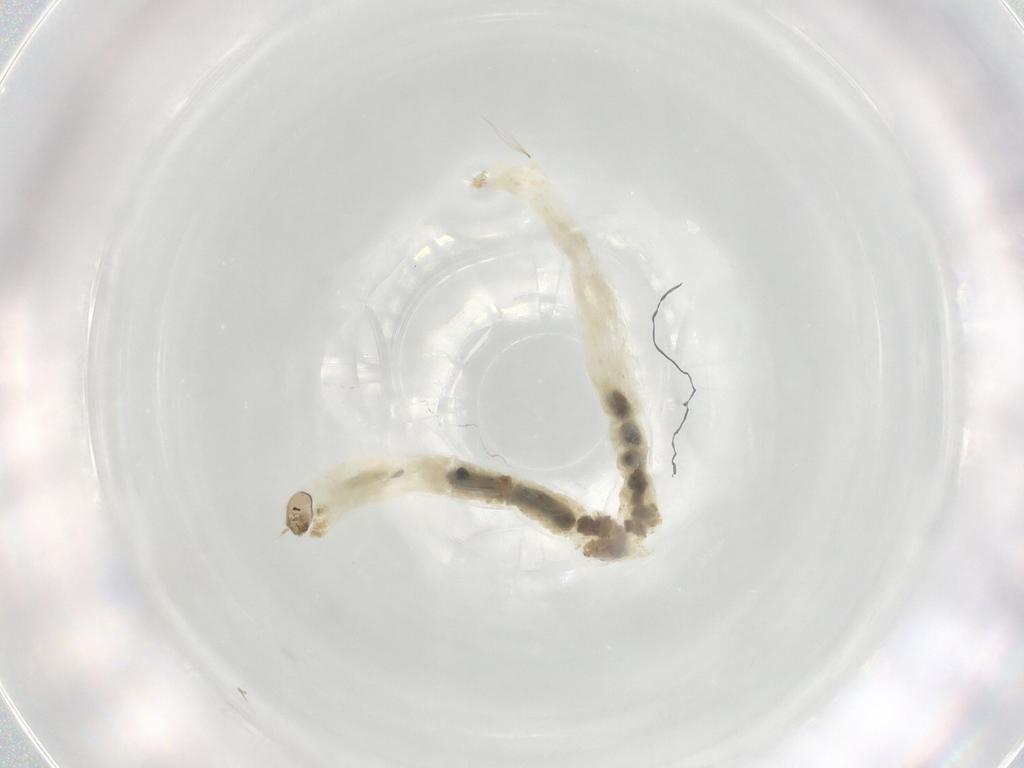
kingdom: Animalia
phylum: Arthropoda
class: Insecta
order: Diptera
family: Chironomidae
